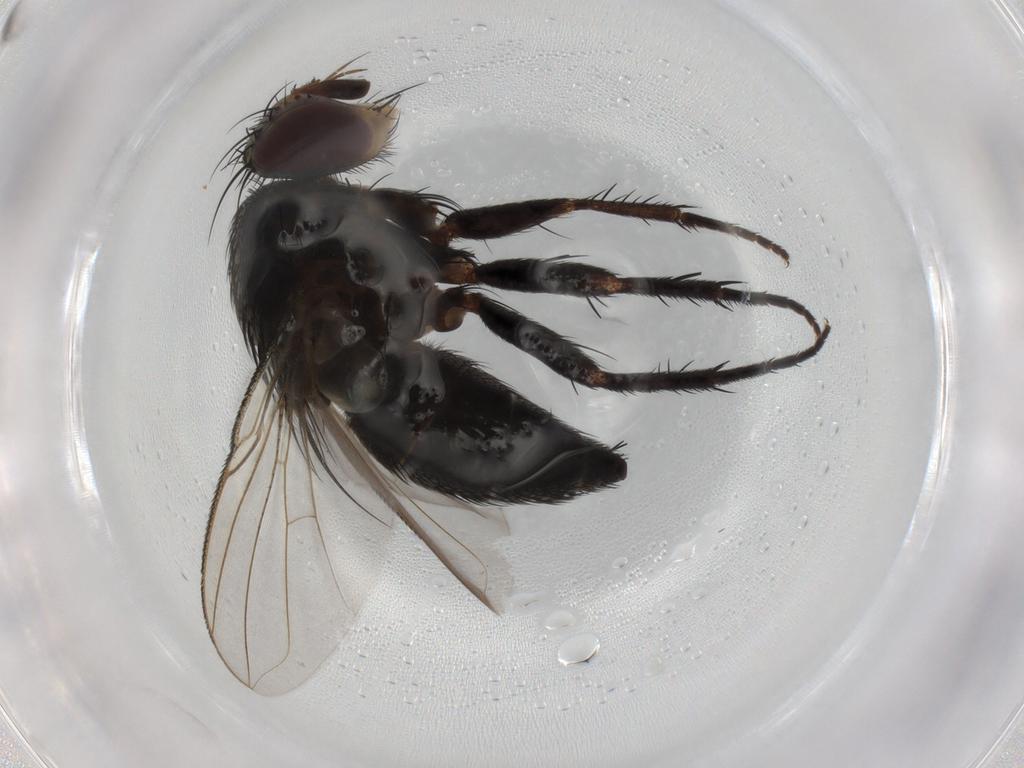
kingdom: Animalia
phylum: Arthropoda
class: Insecta
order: Diptera
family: Tachinidae
